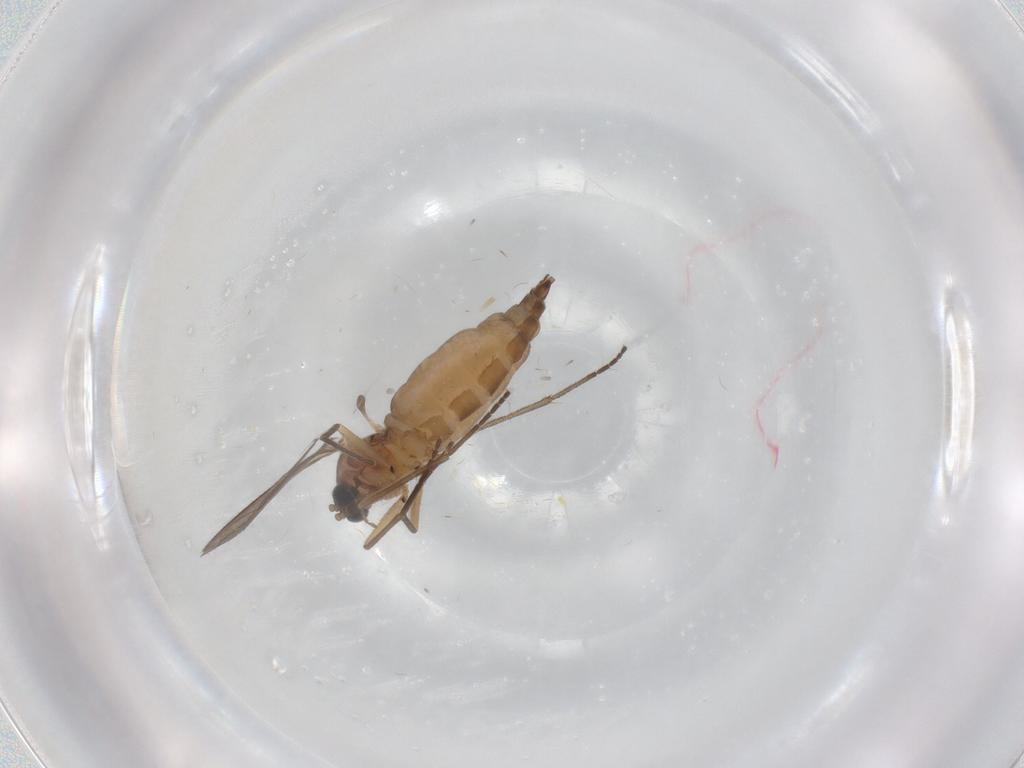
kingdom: Animalia
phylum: Arthropoda
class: Insecta
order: Diptera
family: Sciaridae
